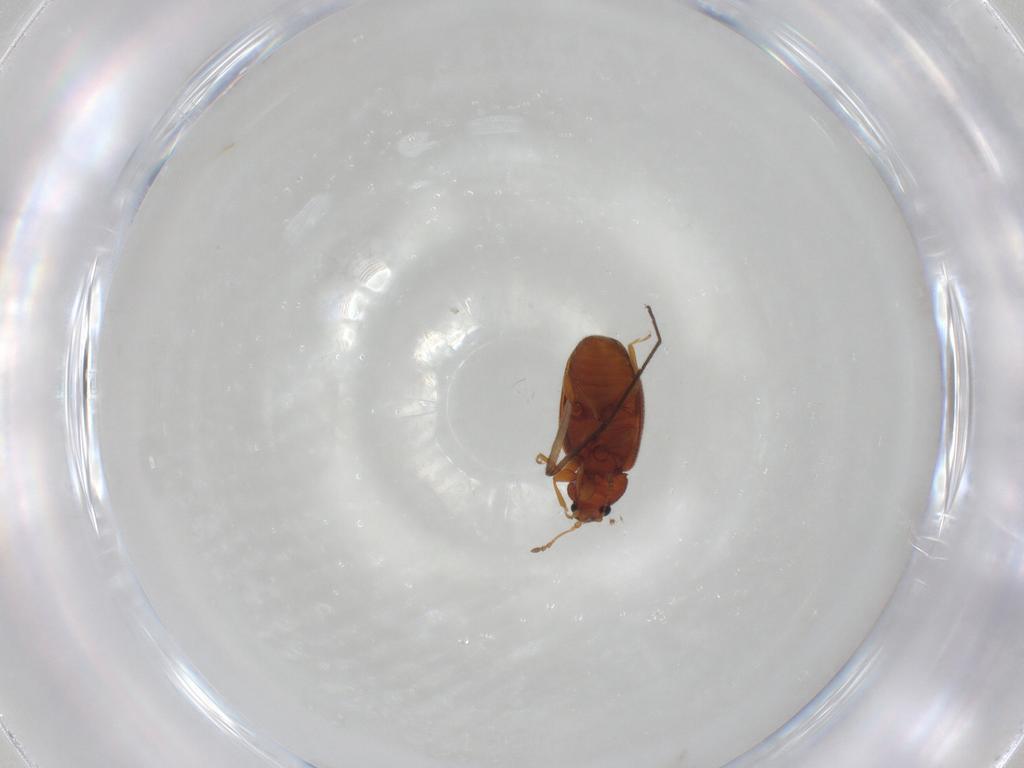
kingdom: Animalia
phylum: Arthropoda
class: Insecta
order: Coleoptera
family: Latridiidae
